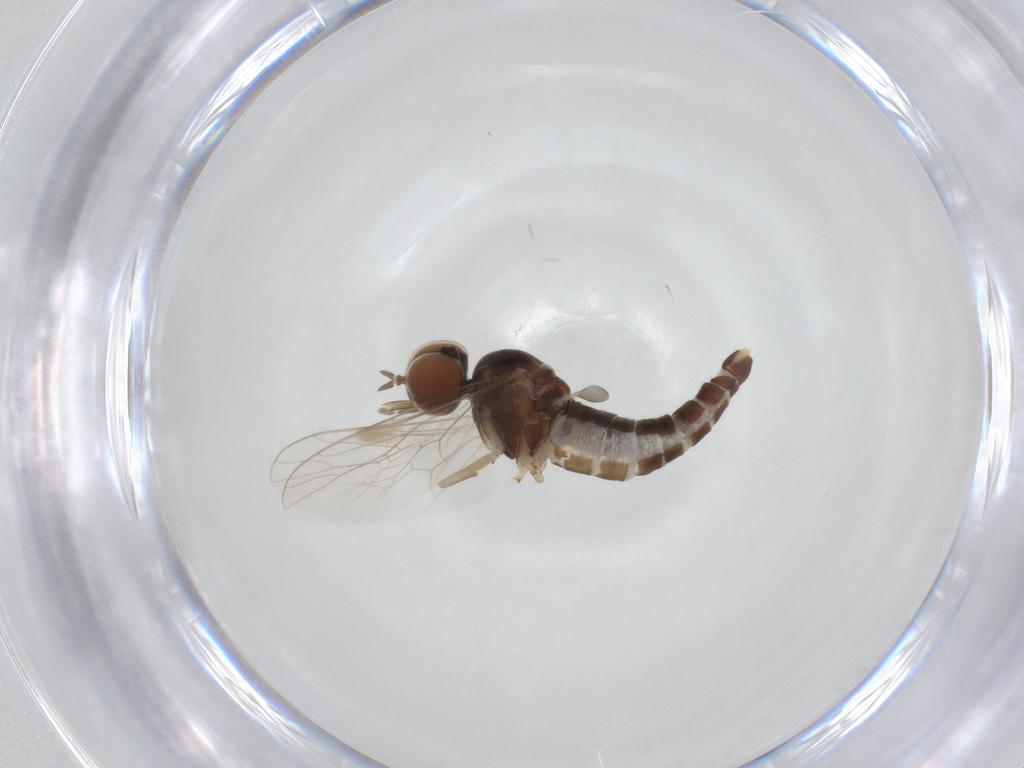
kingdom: Animalia
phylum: Arthropoda
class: Insecta
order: Diptera
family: Scenopinidae
